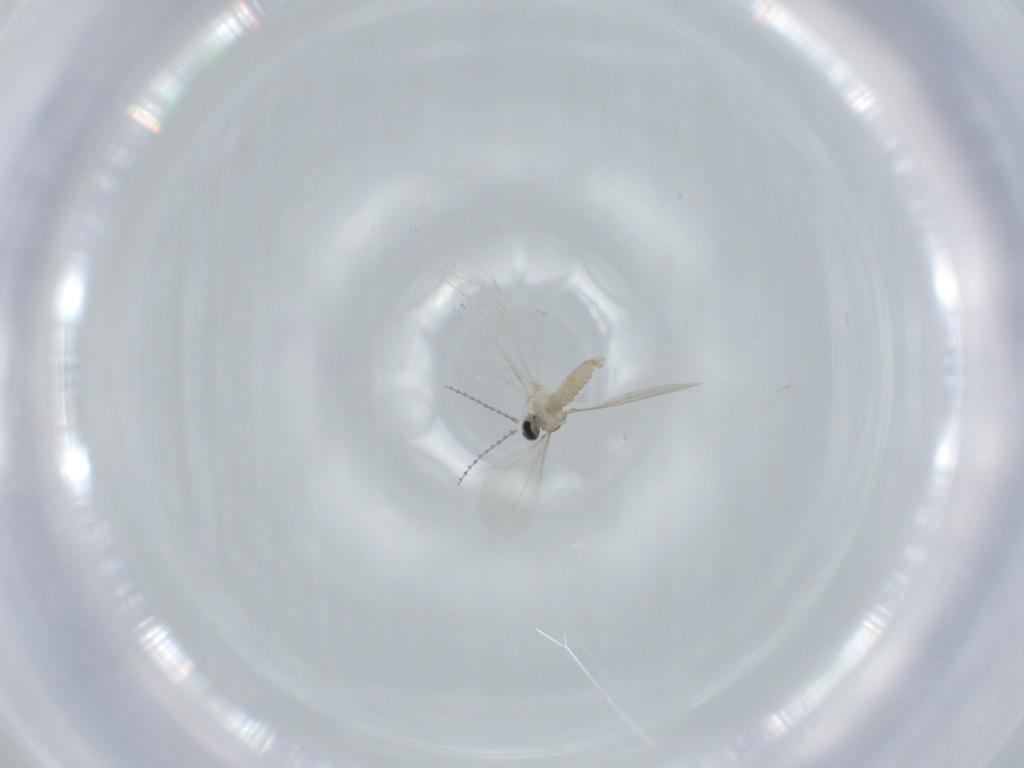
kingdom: Animalia
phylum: Arthropoda
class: Insecta
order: Diptera
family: Cecidomyiidae
